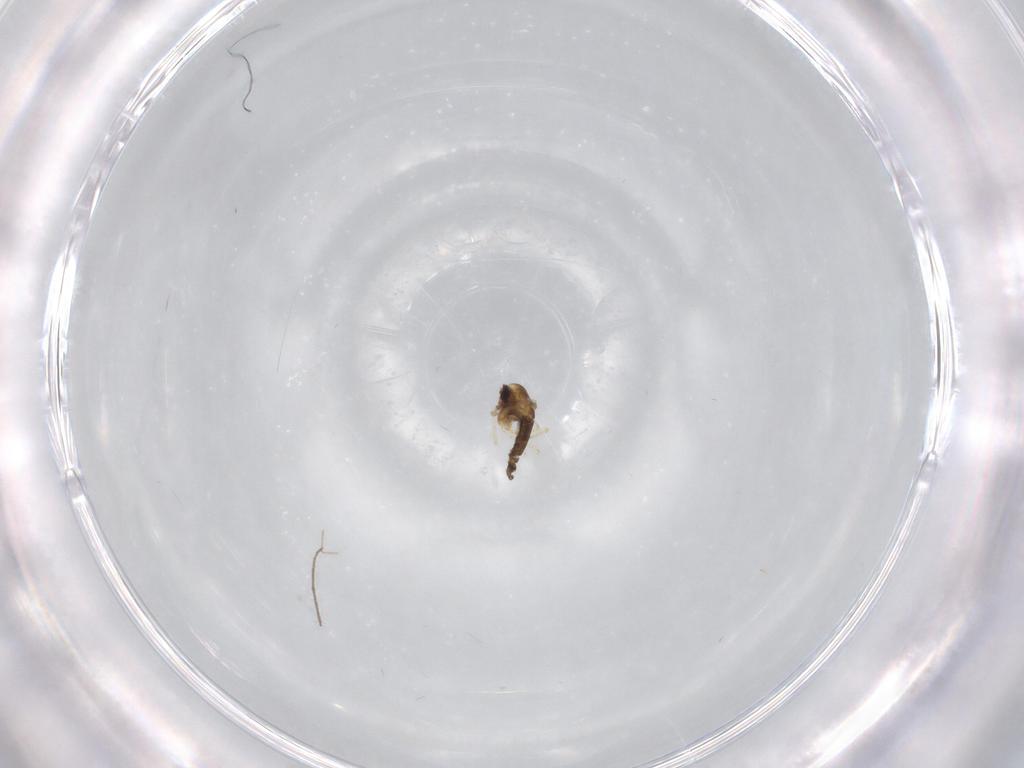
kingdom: Animalia
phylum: Arthropoda
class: Insecta
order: Diptera
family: Chironomidae
